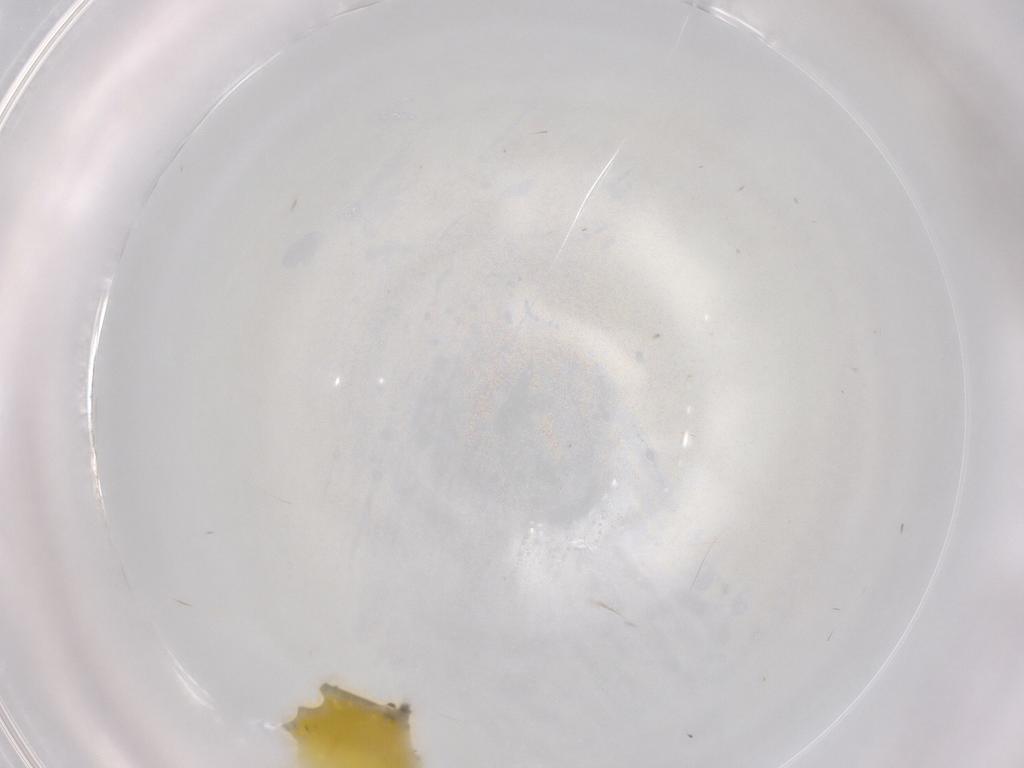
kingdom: Animalia
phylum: Arthropoda
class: Insecta
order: Hemiptera
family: Cicadellidae
